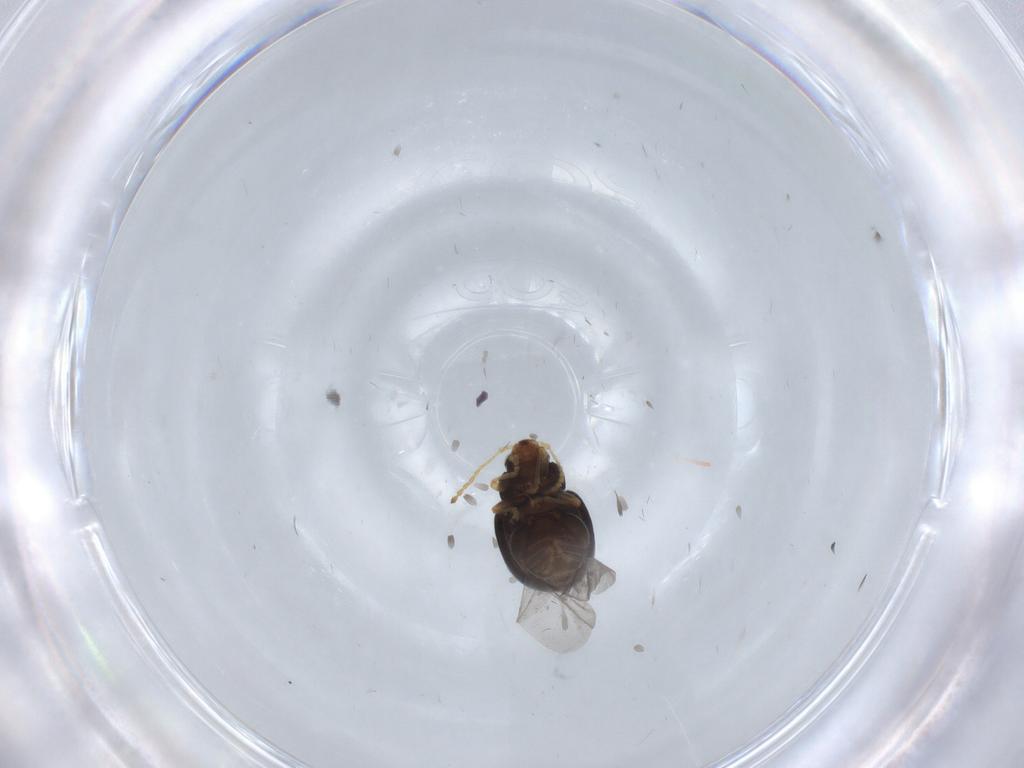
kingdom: Animalia
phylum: Arthropoda
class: Insecta
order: Coleoptera
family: Chrysomelidae
